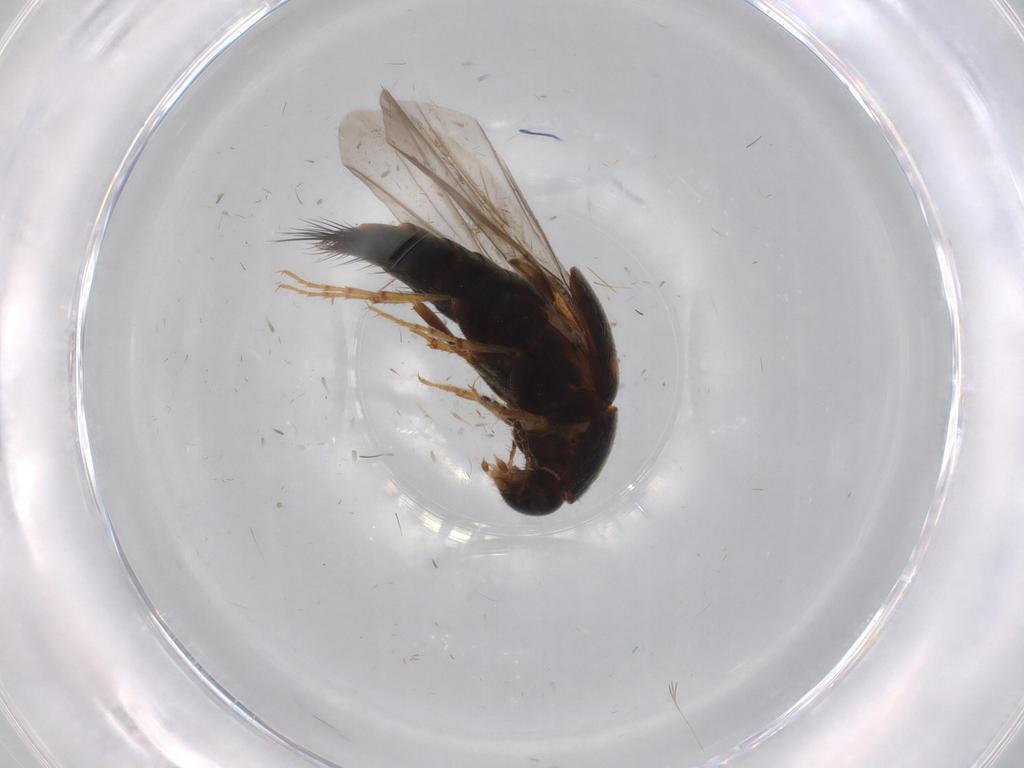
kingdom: Animalia
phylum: Arthropoda
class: Insecta
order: Coleoptera
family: Staphylinidae
